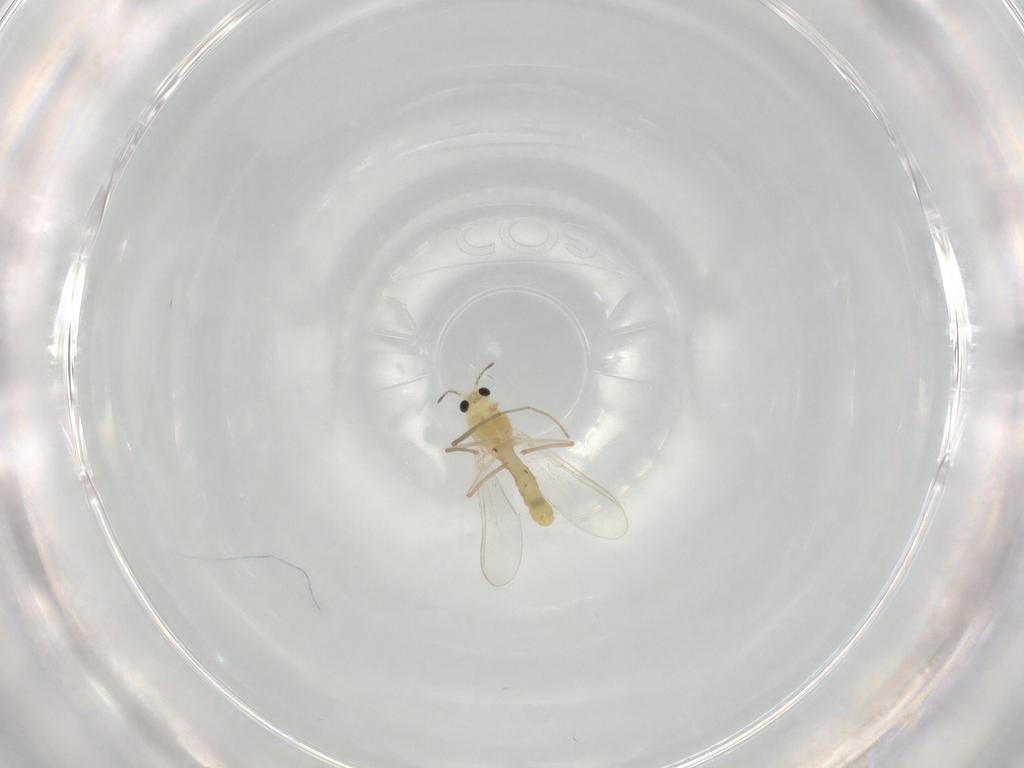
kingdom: Animalia
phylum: Arthropoda
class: Insecta
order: Diptera
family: Chironomidae
